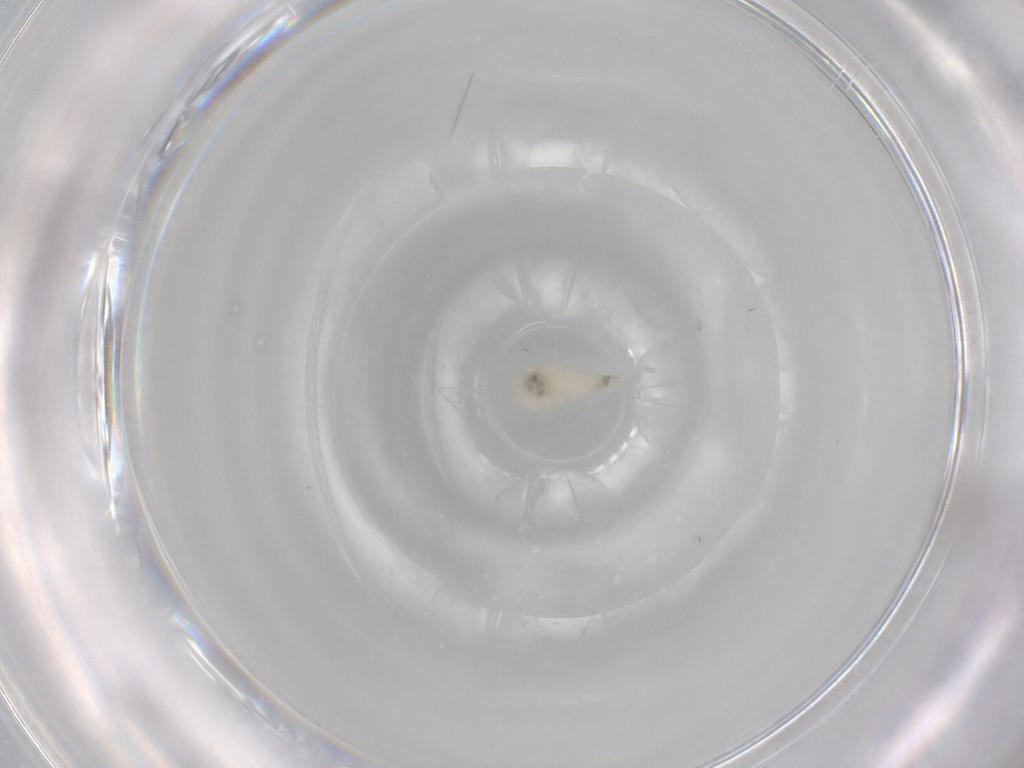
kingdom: Animalia
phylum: Arthropoda
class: Insecta
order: Diptera
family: Cecidomyiidae
